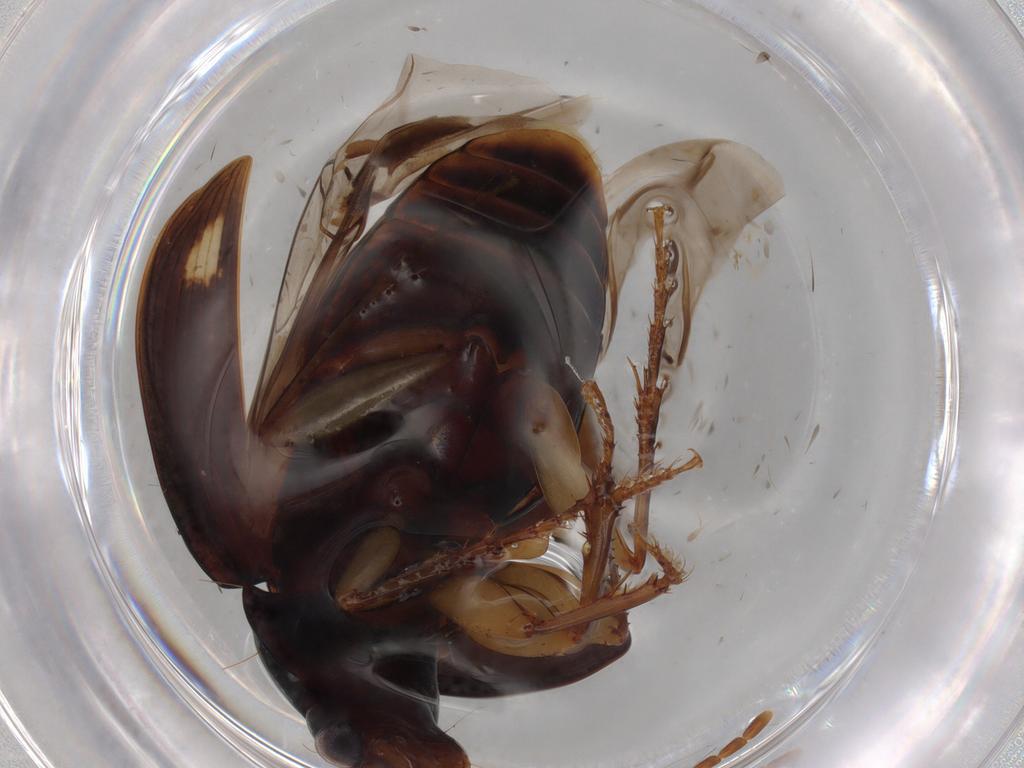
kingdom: Animalia
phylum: Arthropoda
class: Insecta
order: Coleoptera
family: Carabidae
